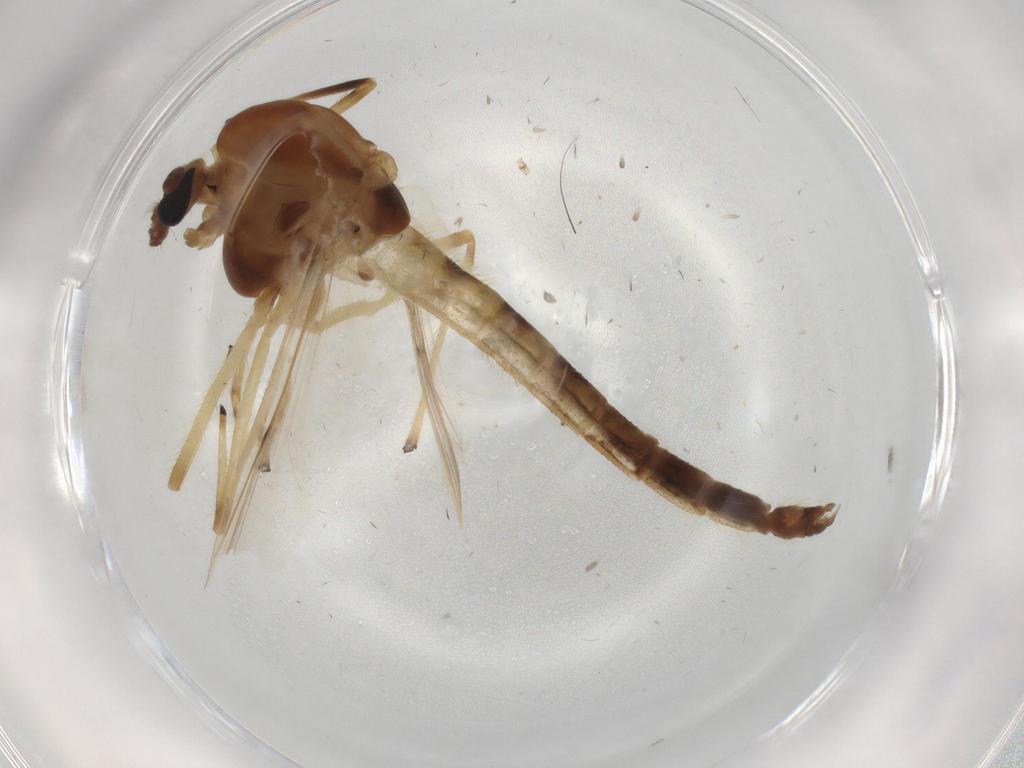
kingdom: Animalia
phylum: Arthropoda
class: Insecta
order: Diptera
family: Chironomidae
